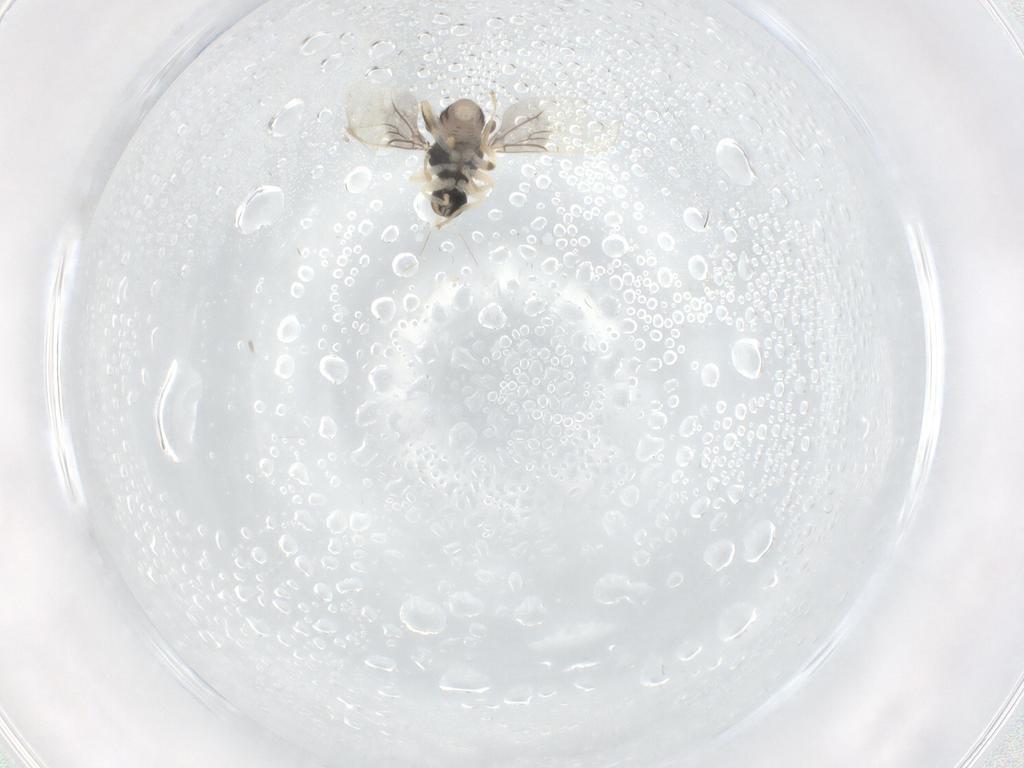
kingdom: Animalia
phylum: Arthropoda
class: Insecta
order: Diptera
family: Hybotidae
